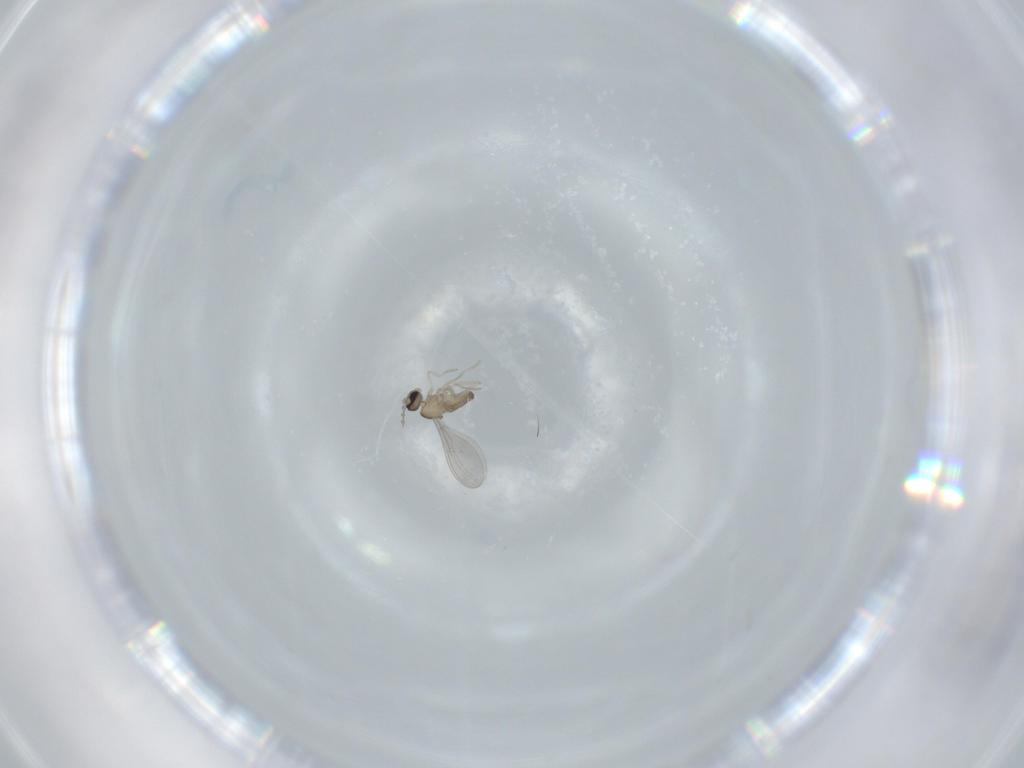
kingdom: Animalia
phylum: Arthropoda
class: Insecta
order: Diptera
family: Cecidomyiidae
